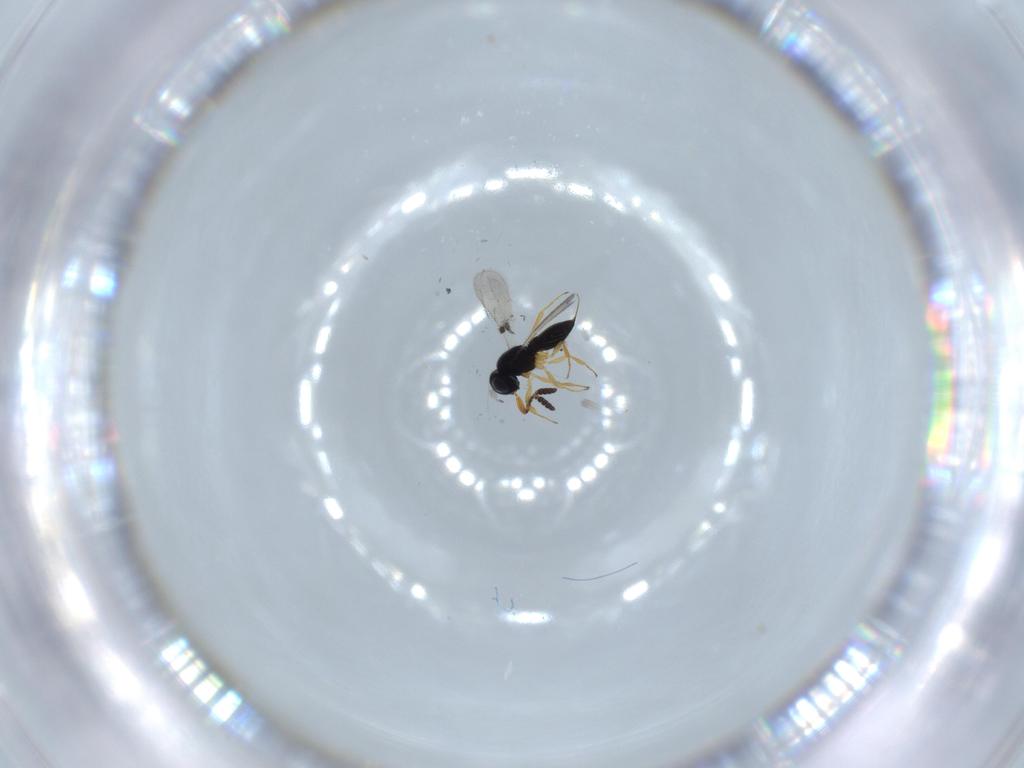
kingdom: Animalia
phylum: Arthropoda
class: Insecta
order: Hymenoptera
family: Scelionidae
